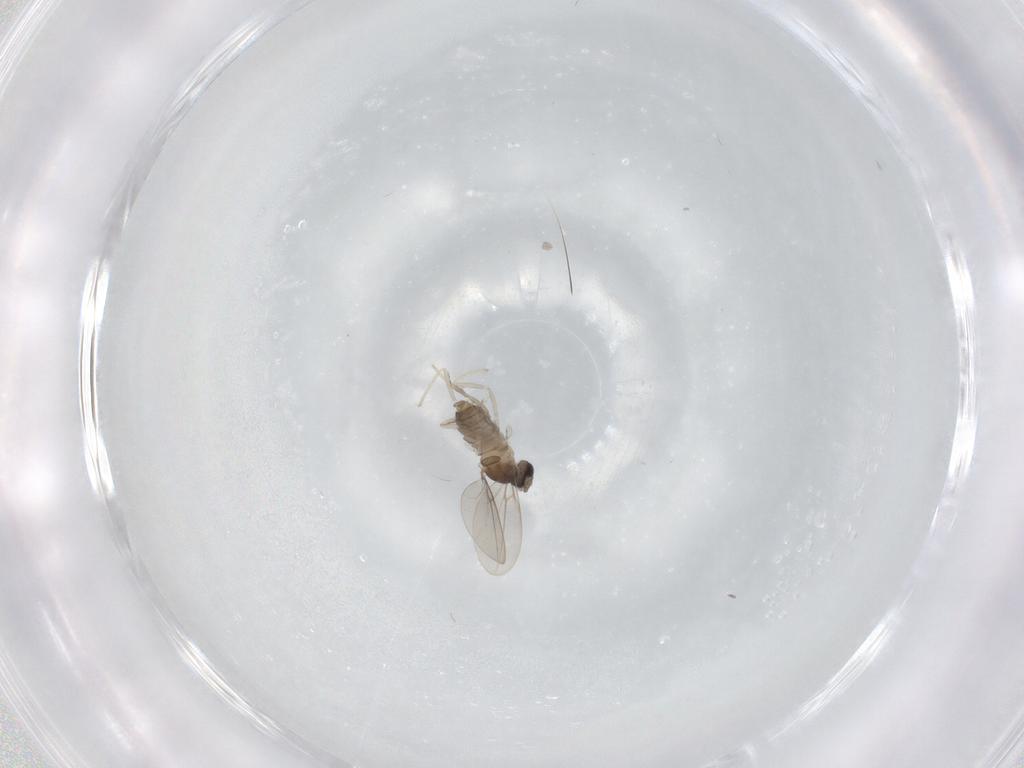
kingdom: Animalia
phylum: Arthropoda
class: Insecta
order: Diptera
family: Cecidomyiidae
